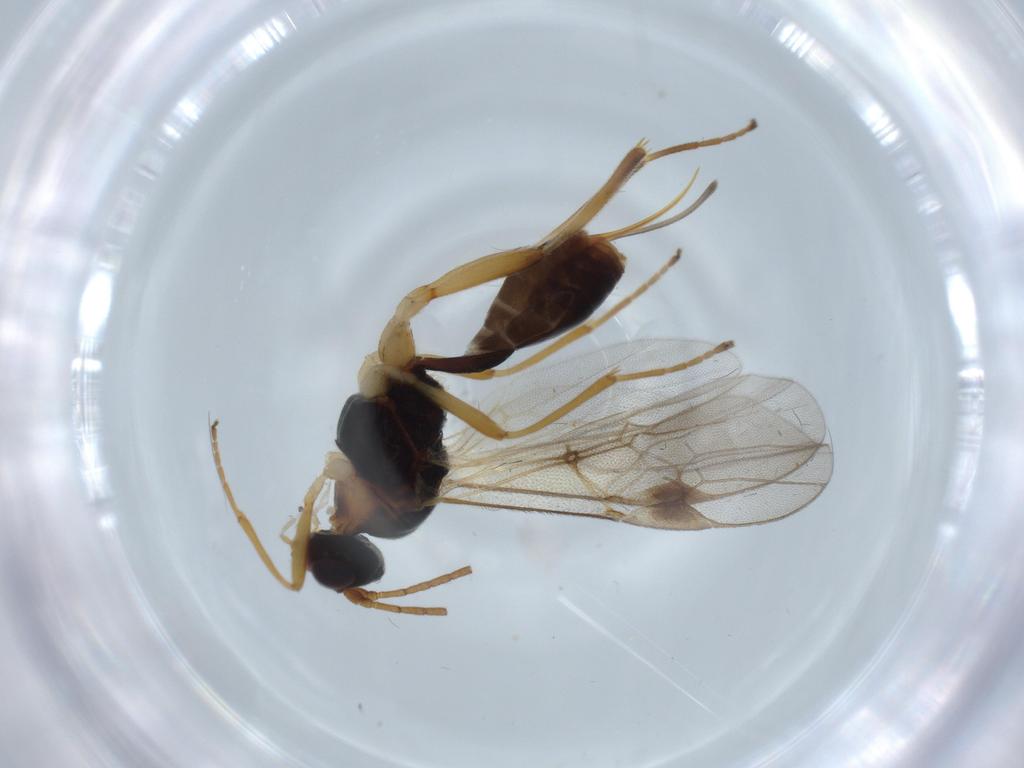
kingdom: Animalia
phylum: Arthropoda
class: Insecta
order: Hymenoptera
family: Braconidae
